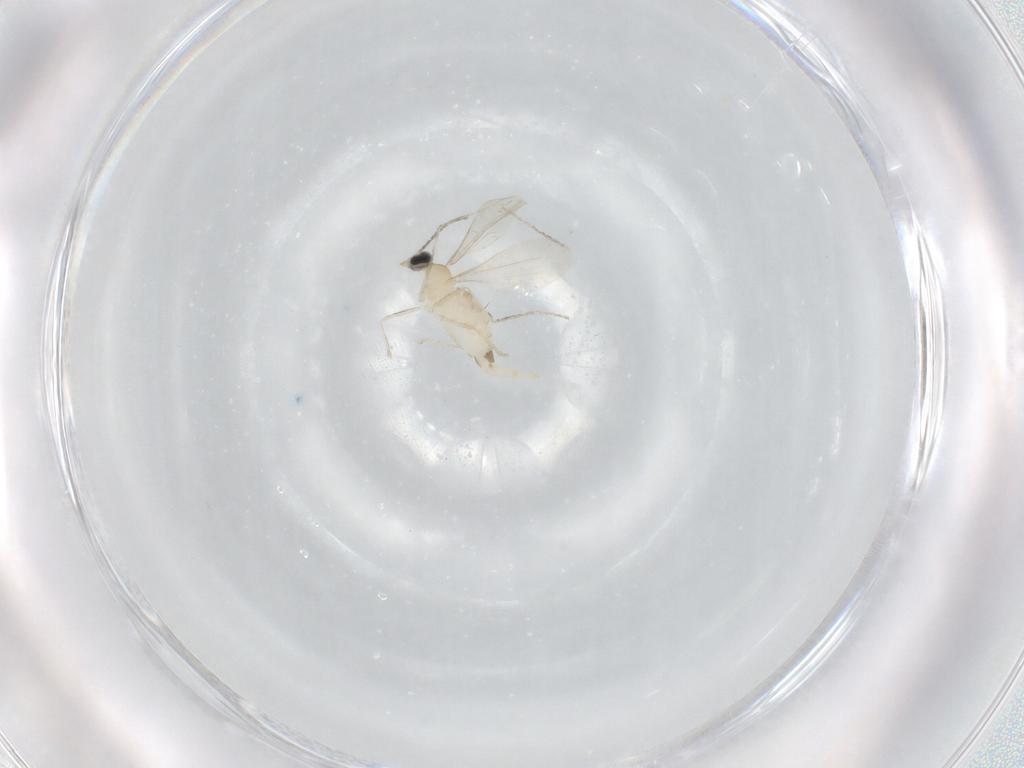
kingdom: Animalia
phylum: Arthropoda
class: Insecta
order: Diptera
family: Cecidomyiidae
